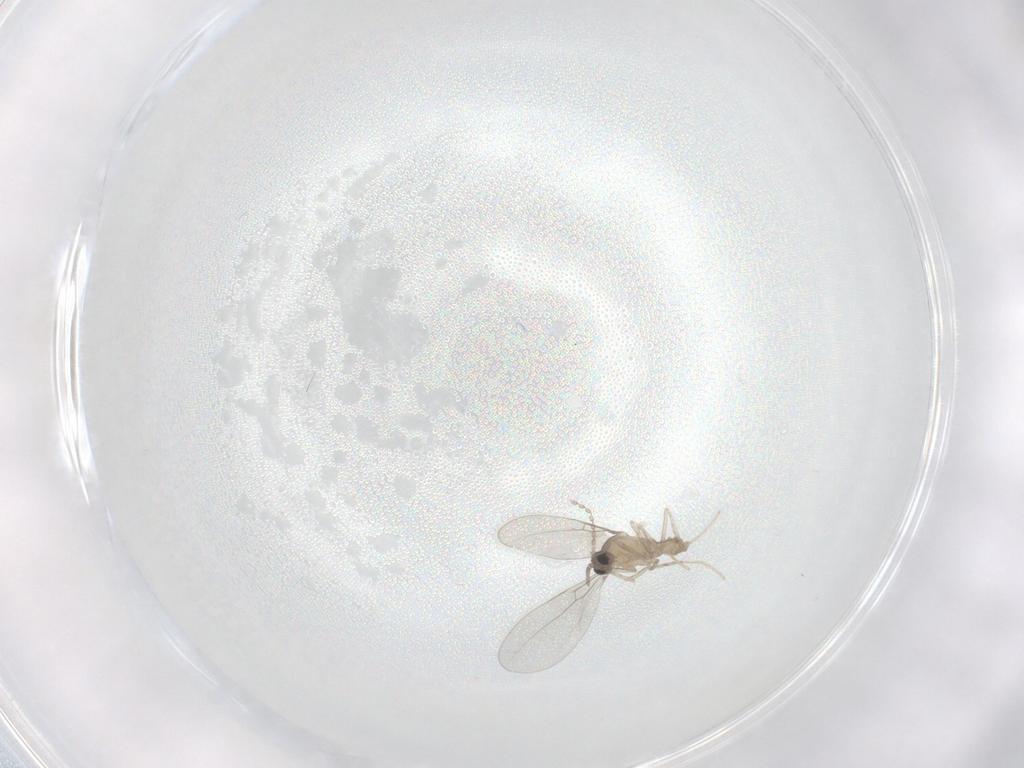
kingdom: Animalia
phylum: Arthropoda
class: Insecta
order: Diptera
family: Cecidomyiidae
